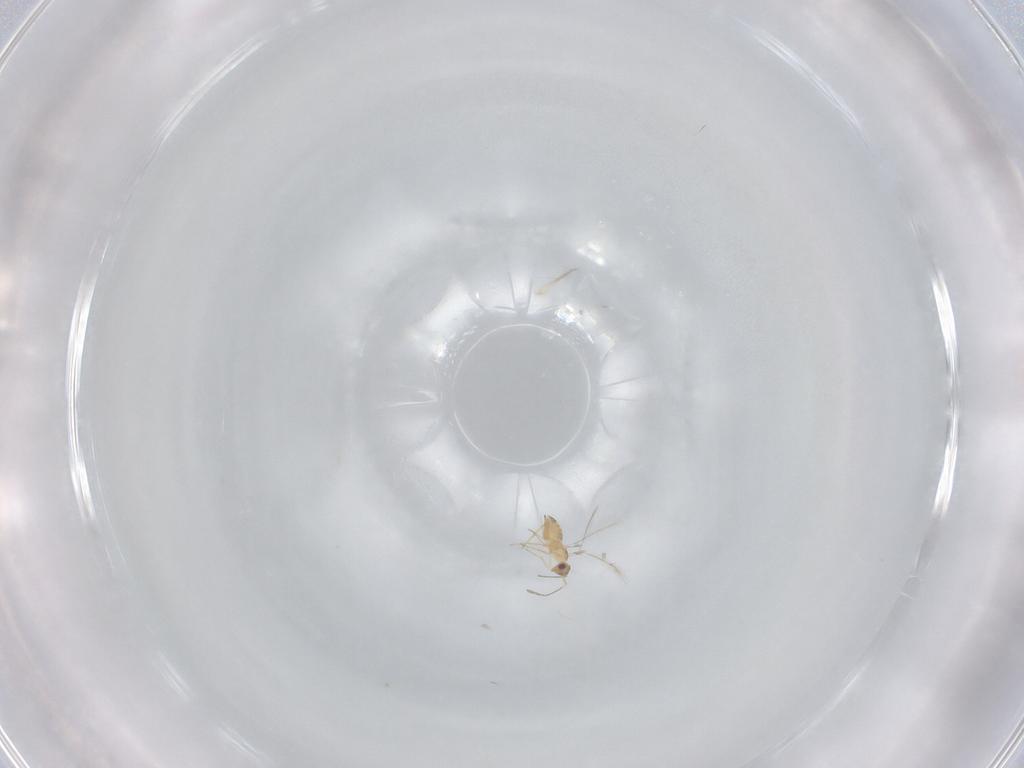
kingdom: Animalia
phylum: Arthropoda
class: Insecta
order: Hymenoptera
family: Mymaridae
